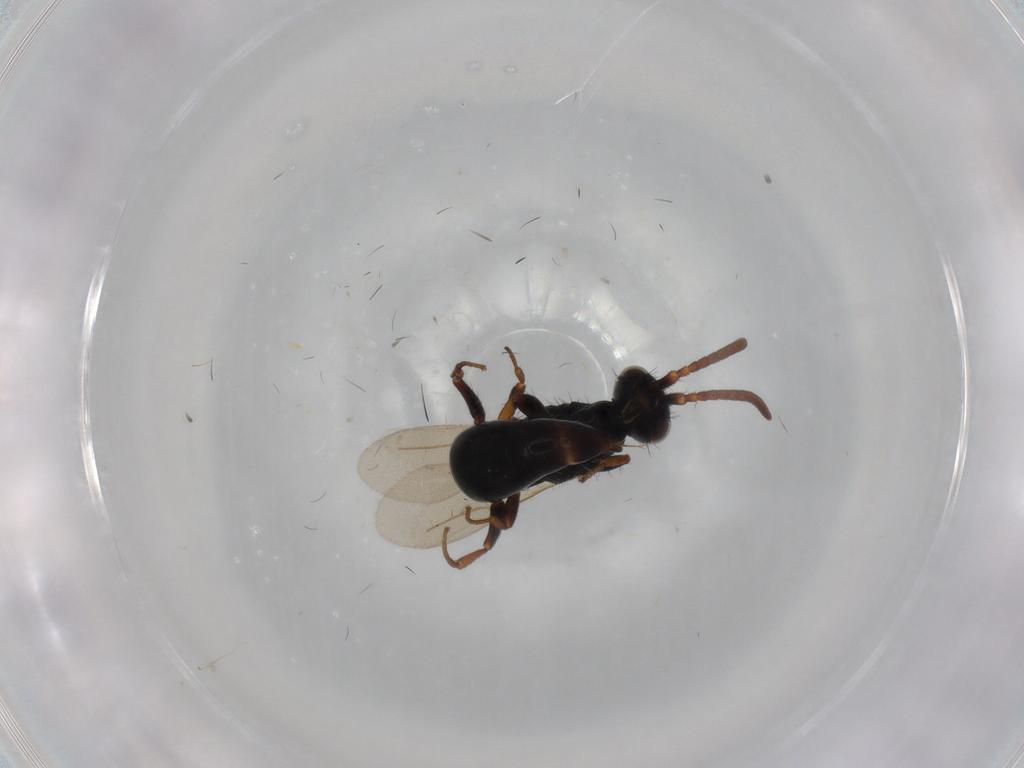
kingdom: Animalia
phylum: Arthropoda
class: Insecta
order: Hymenoptera
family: Bethylidae
